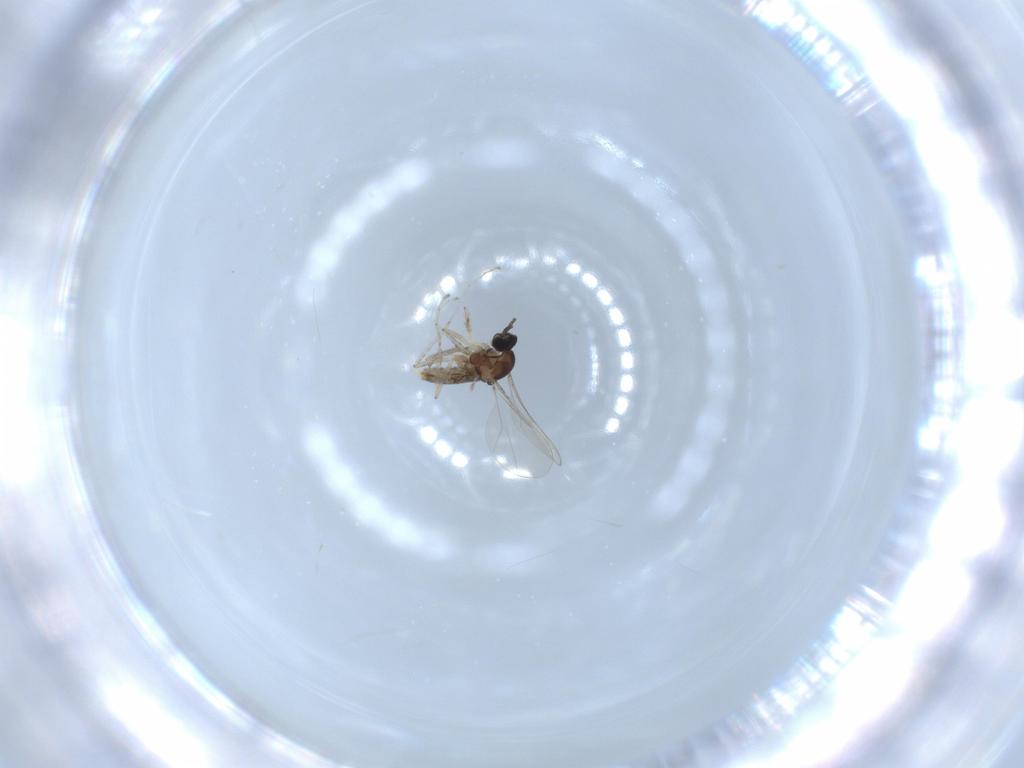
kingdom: Animalia
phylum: Arthropoda
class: Insecta
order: Diptera
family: Cecidomyiidae
